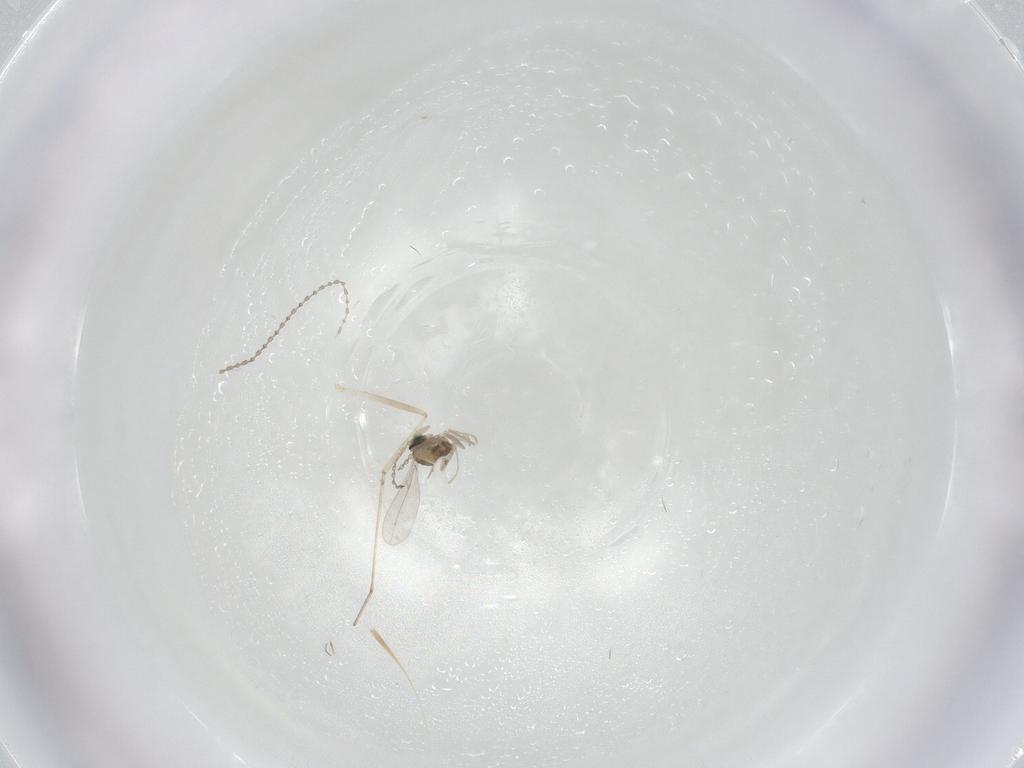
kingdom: Animalia
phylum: Arthropoda
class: Insecta
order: Diptera
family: Cecidomyiidae
